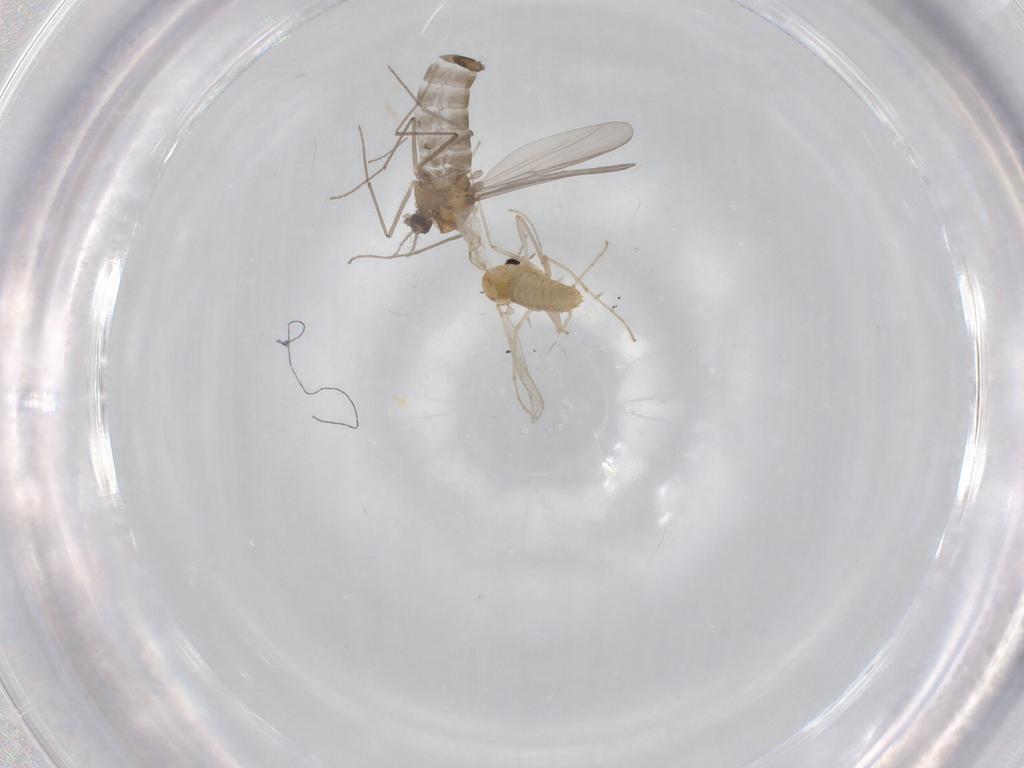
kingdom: Animalia
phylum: Arthropoda
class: Insecta
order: Diptera
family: Chironomidae
